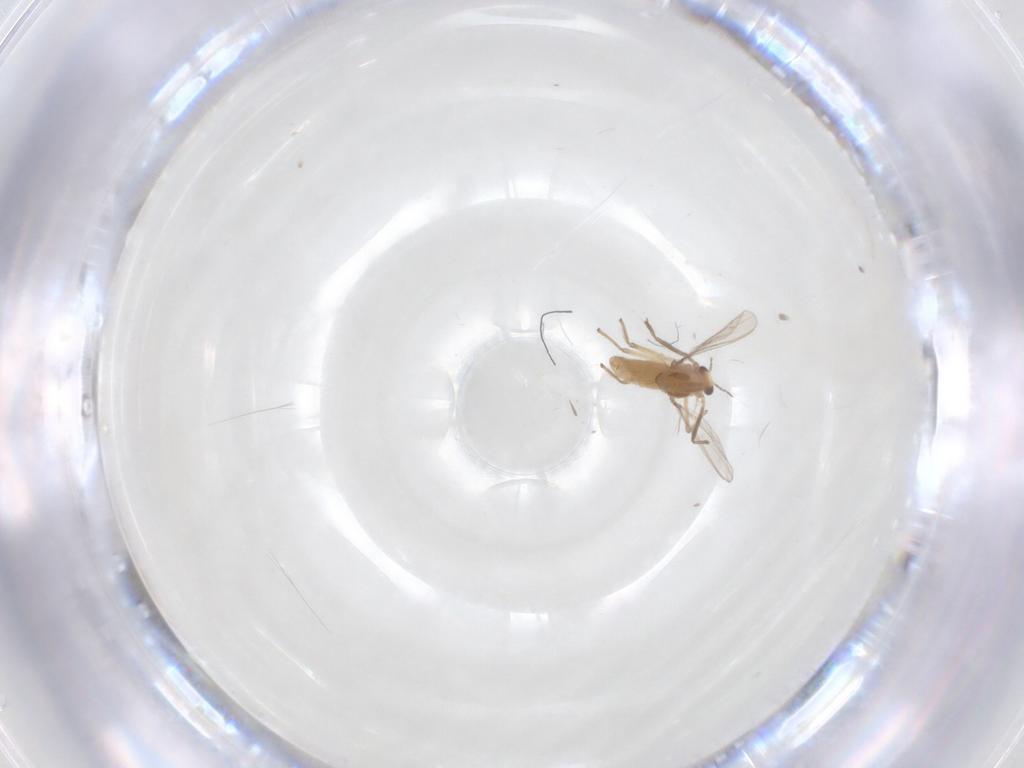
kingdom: Animalia
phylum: Arthropoda
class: Insecta
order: Diptera
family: Chironomidae
